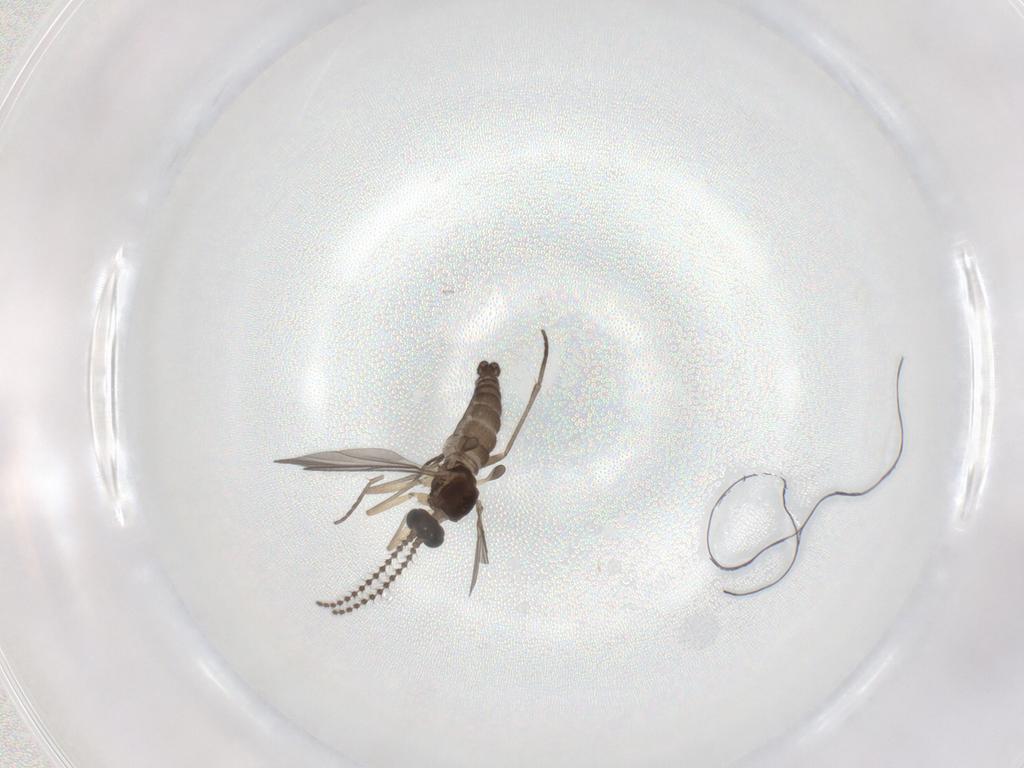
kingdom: Animalia
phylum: Arthropoda
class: Insecta
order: Diptera
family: Sciaridae
